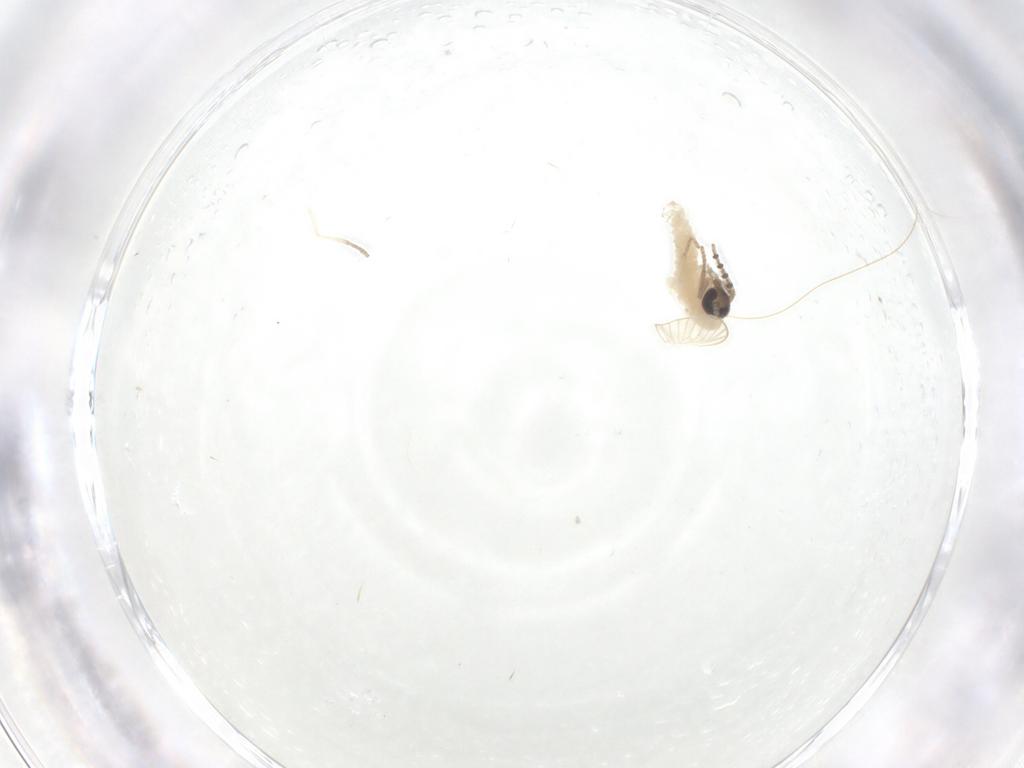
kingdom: Animalia
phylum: Arthropoda
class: Insecta
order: Diptera
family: Psychodidae
